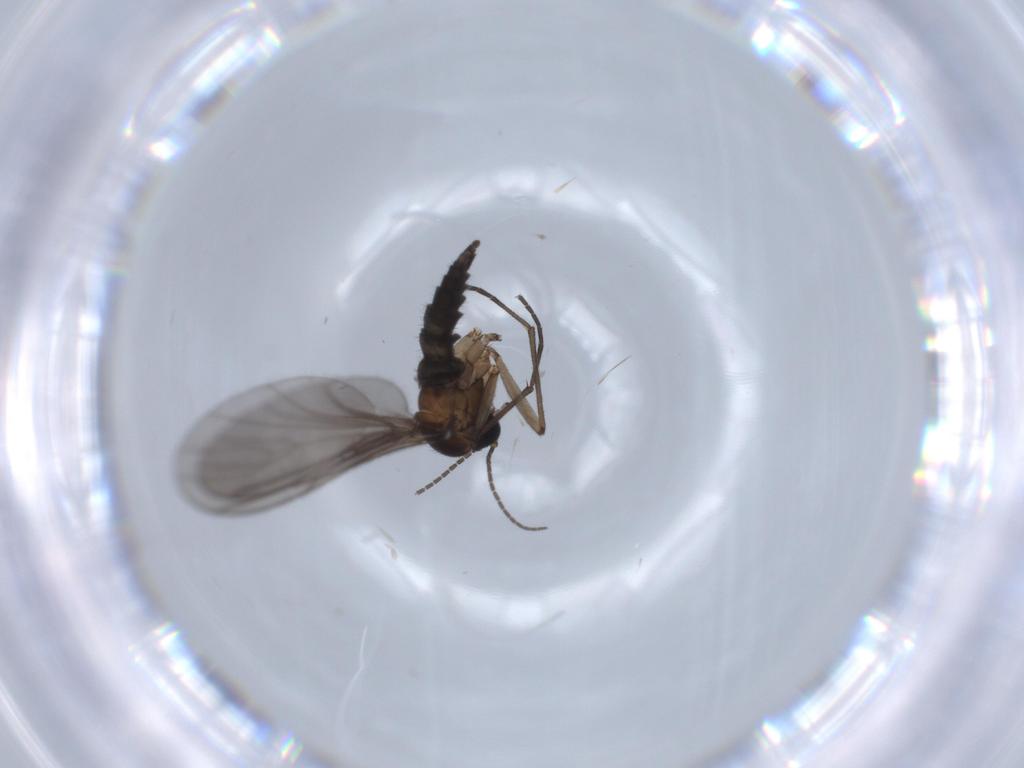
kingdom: Animalia
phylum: Arthropoda
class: Insecta
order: Diptera
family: Sciaridae
